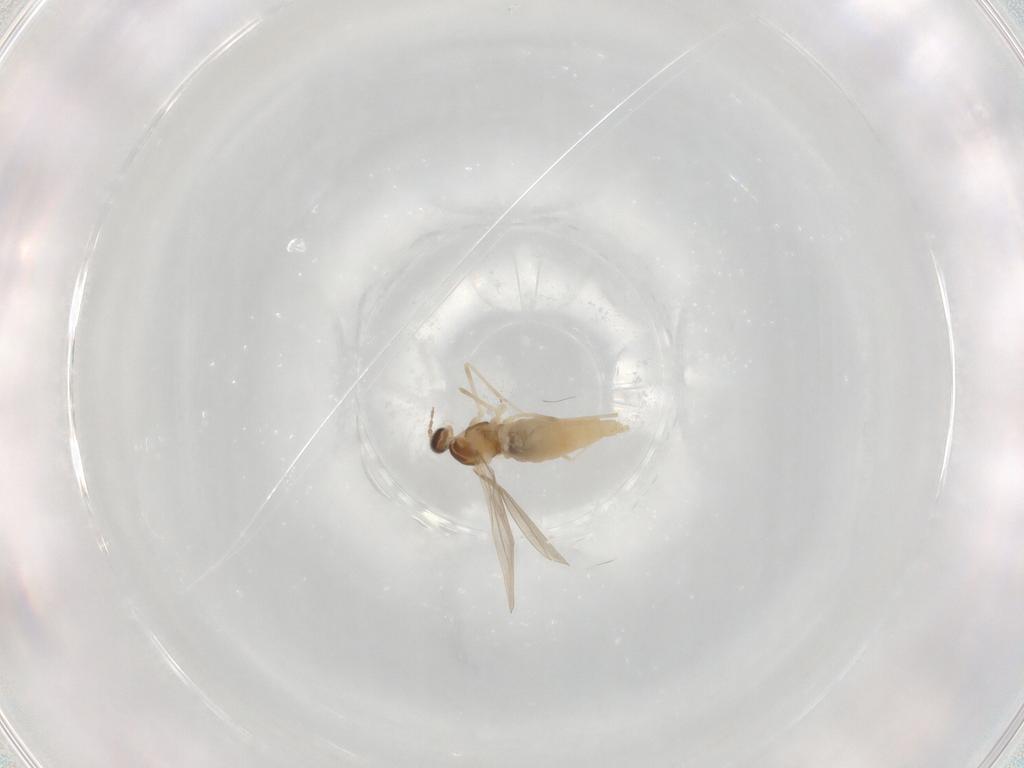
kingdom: Animalia
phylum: Arthropoda
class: Insecta
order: Diptera
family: Cecidomyiidae
